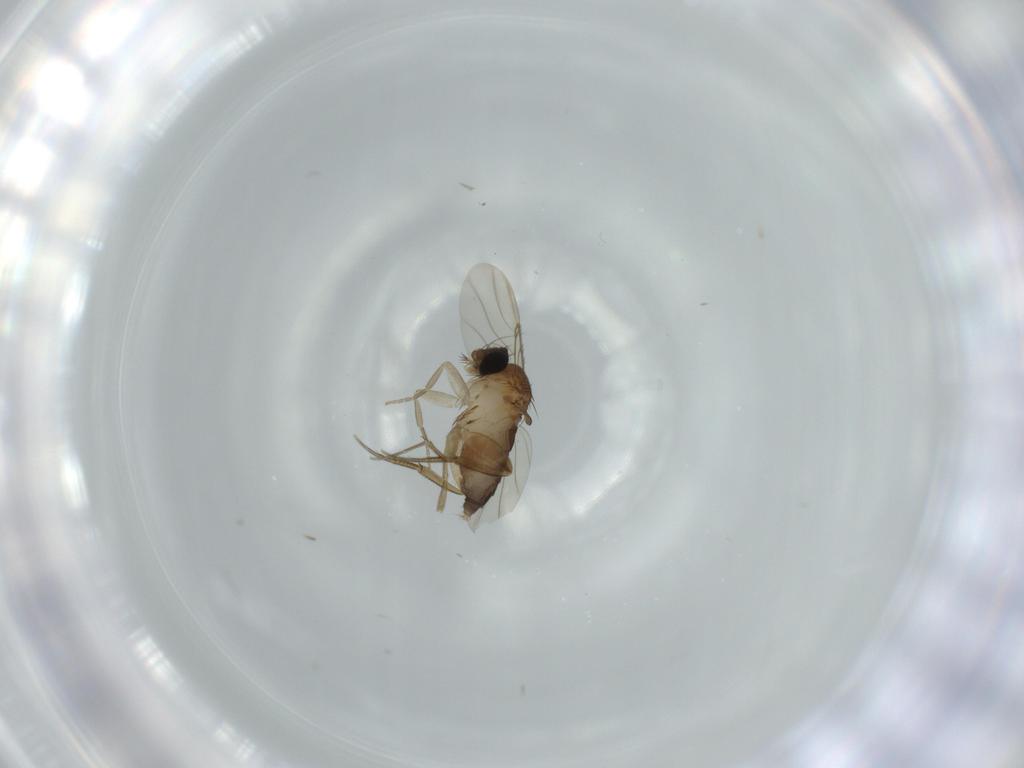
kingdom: Animalia
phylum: Arthropoda
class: Insecta
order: Diptera
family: Phoridae
